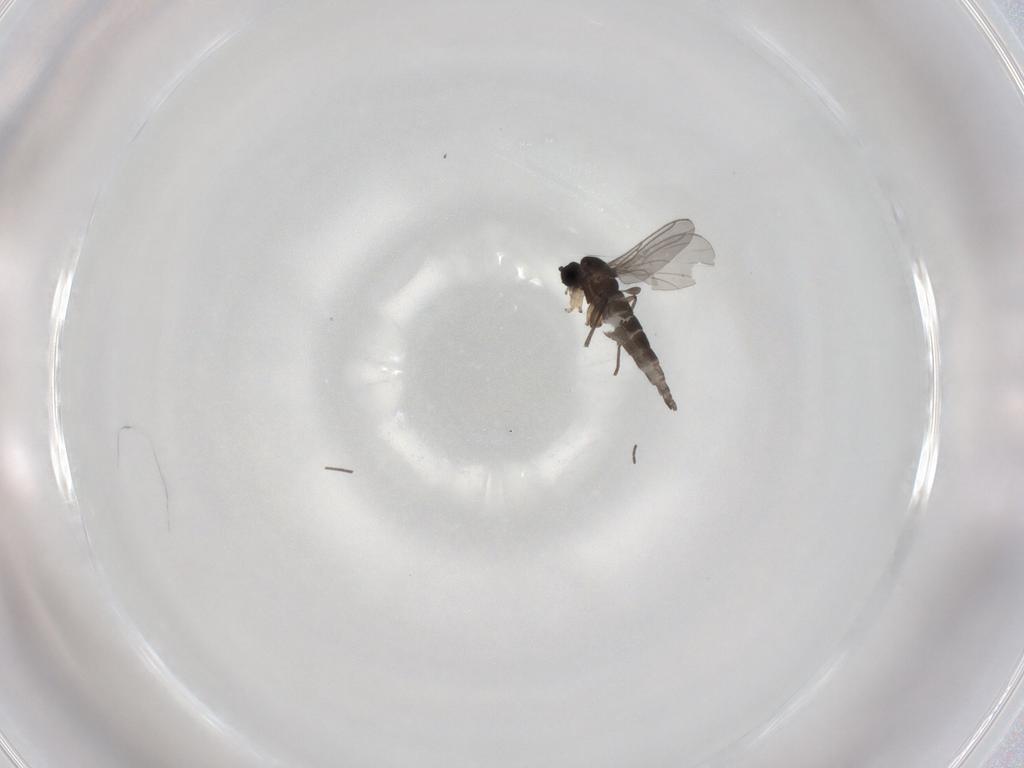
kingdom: Animalia
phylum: Arthropoda
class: Insecta
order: Diptera
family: Sciaridae
